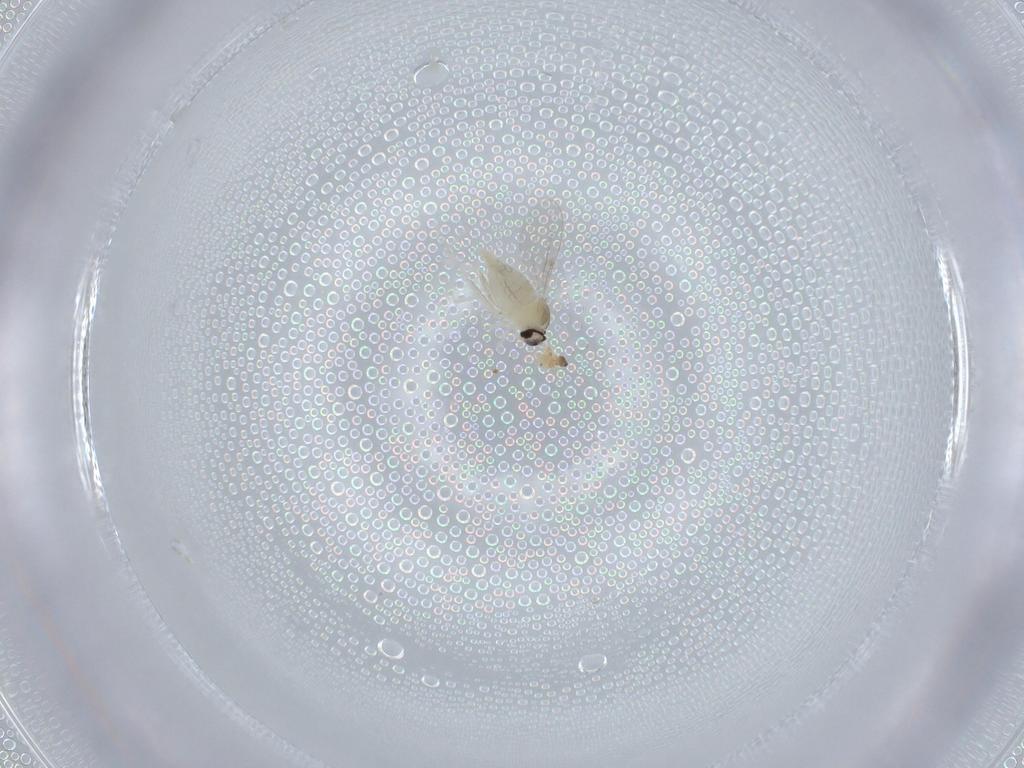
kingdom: Animalia
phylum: Arthropoda
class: Insecta
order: Diptera
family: Cecidomyiidae
